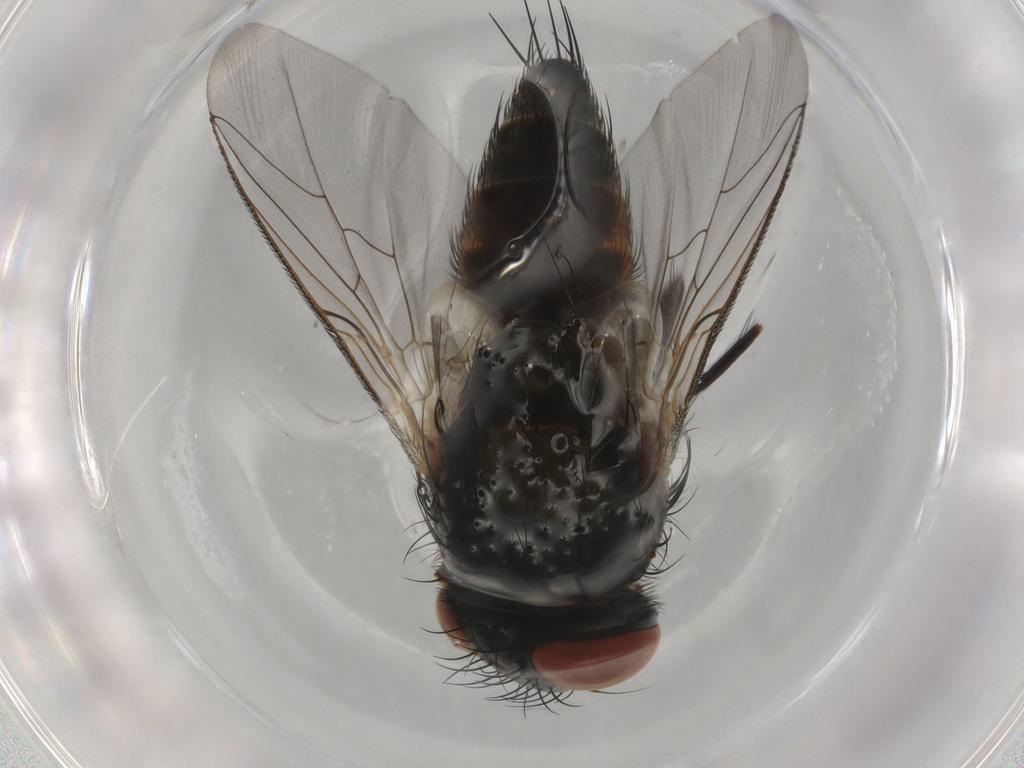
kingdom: Animalia
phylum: Arthropoda
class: Insecta
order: Diptera
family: Sarcophagidae
